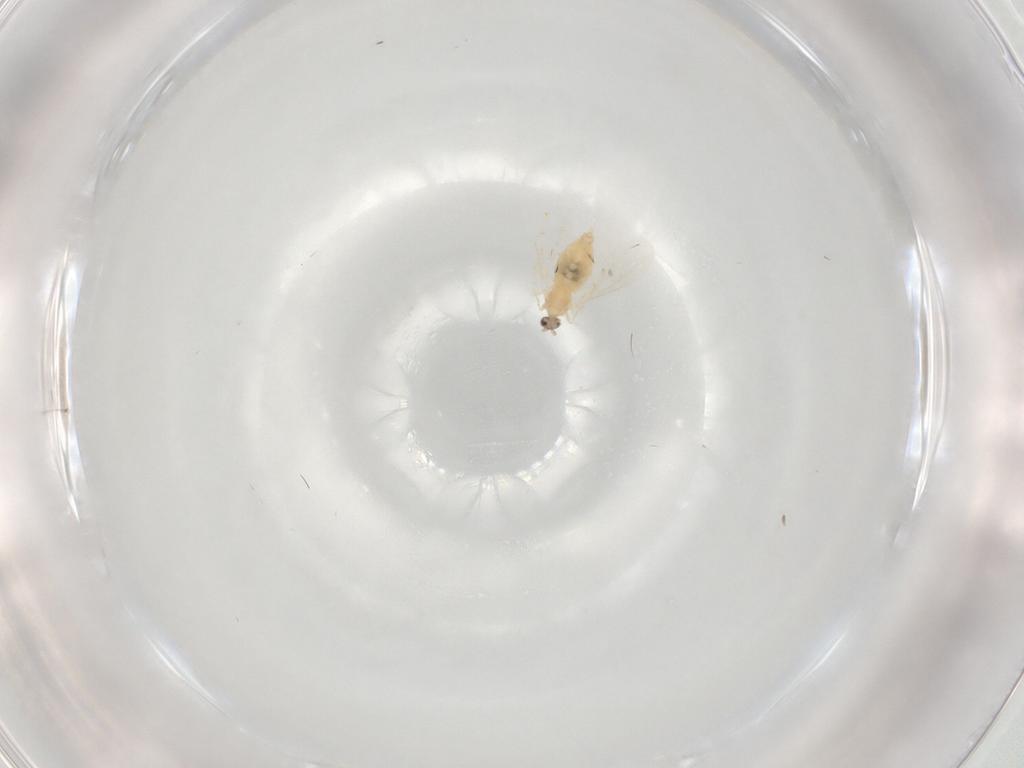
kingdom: Animalia
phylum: Arthropoda
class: Insecta
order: Diptera
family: Cecidomyiidae
